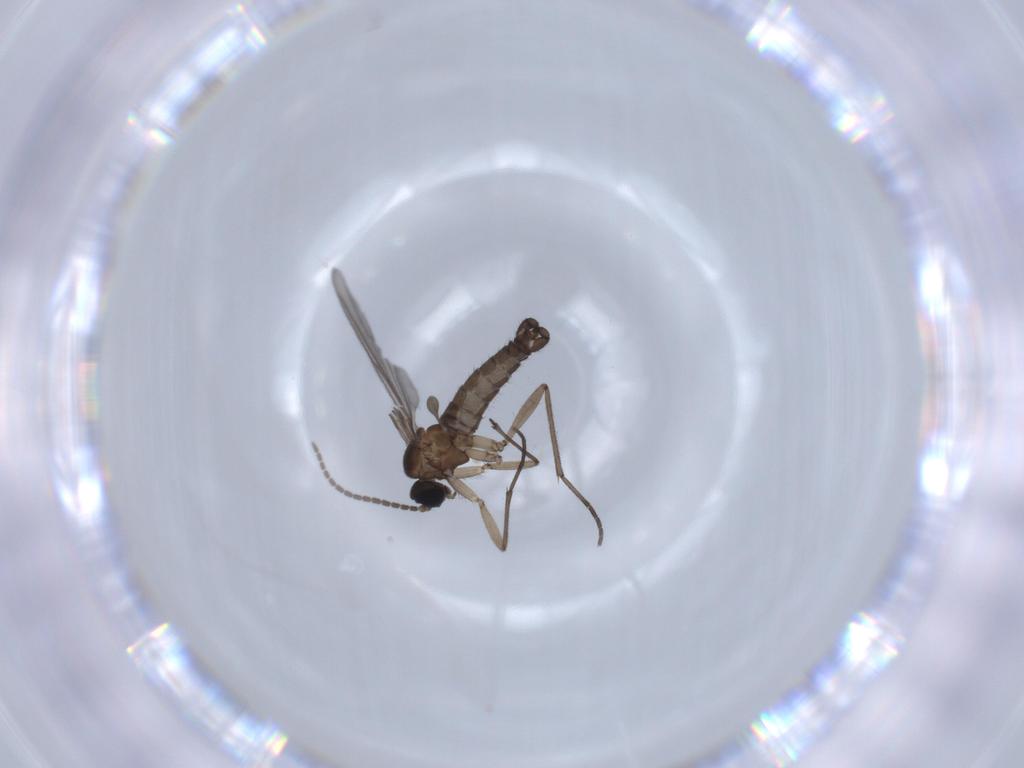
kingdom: Animalia
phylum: Arthropoda
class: Insecta
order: Diptera
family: Sciaridae
